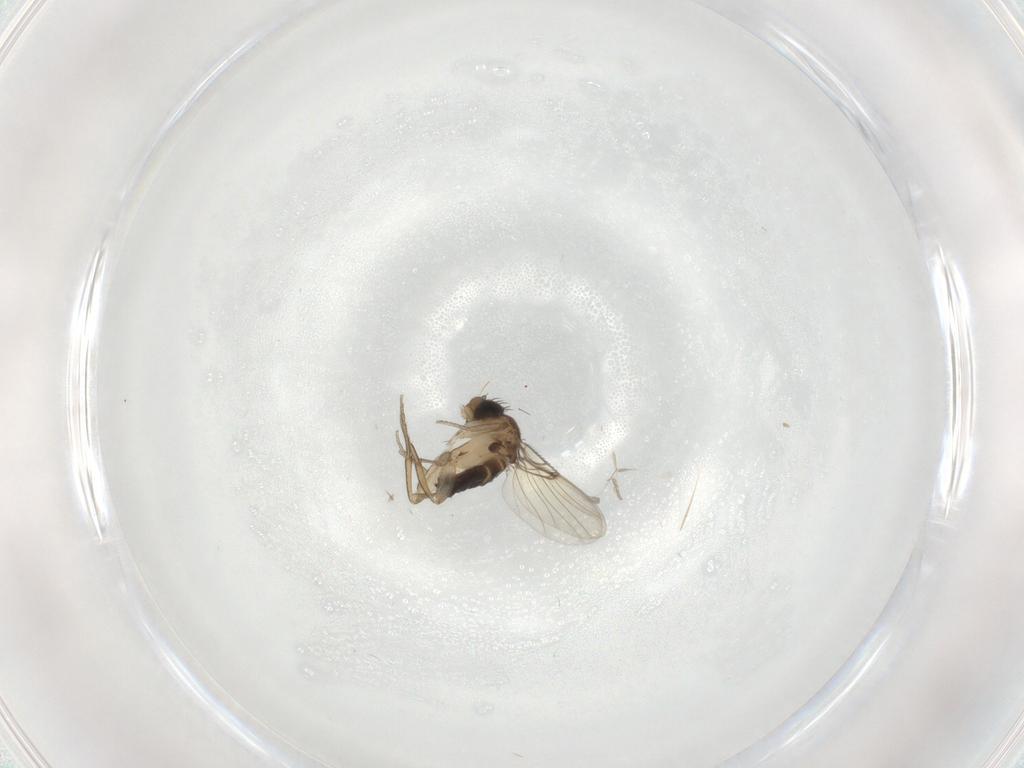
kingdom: Animalia
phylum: Arthropoda
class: Insecta
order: Diptera
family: Cecidomyiidae
